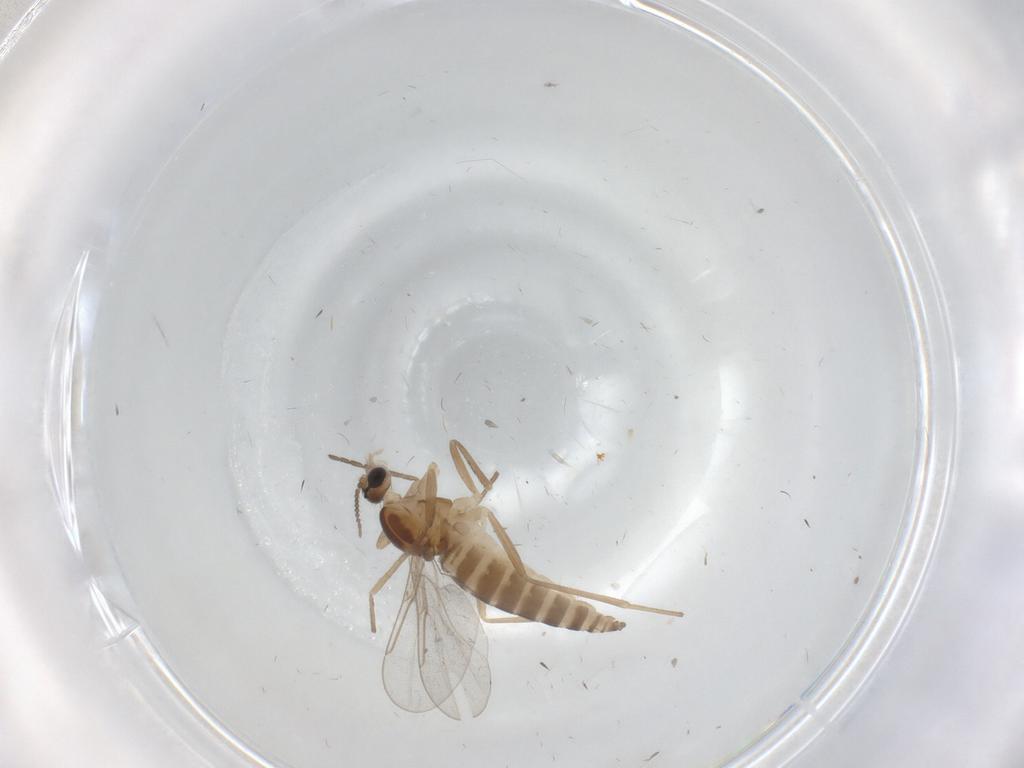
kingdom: Animalia
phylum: Arthropoda
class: Insecta
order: Diptera
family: Cecidomyiidae
